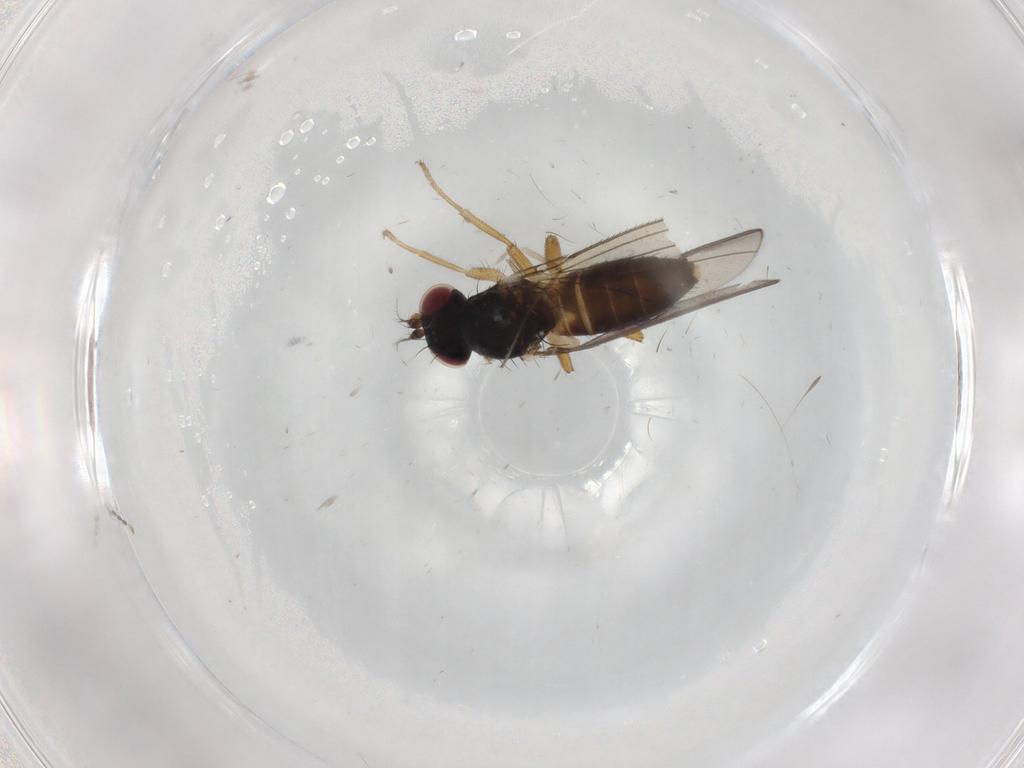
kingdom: Animalia
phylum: Arthropoda
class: Insecta
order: Diptera
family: Anthomyzidae
